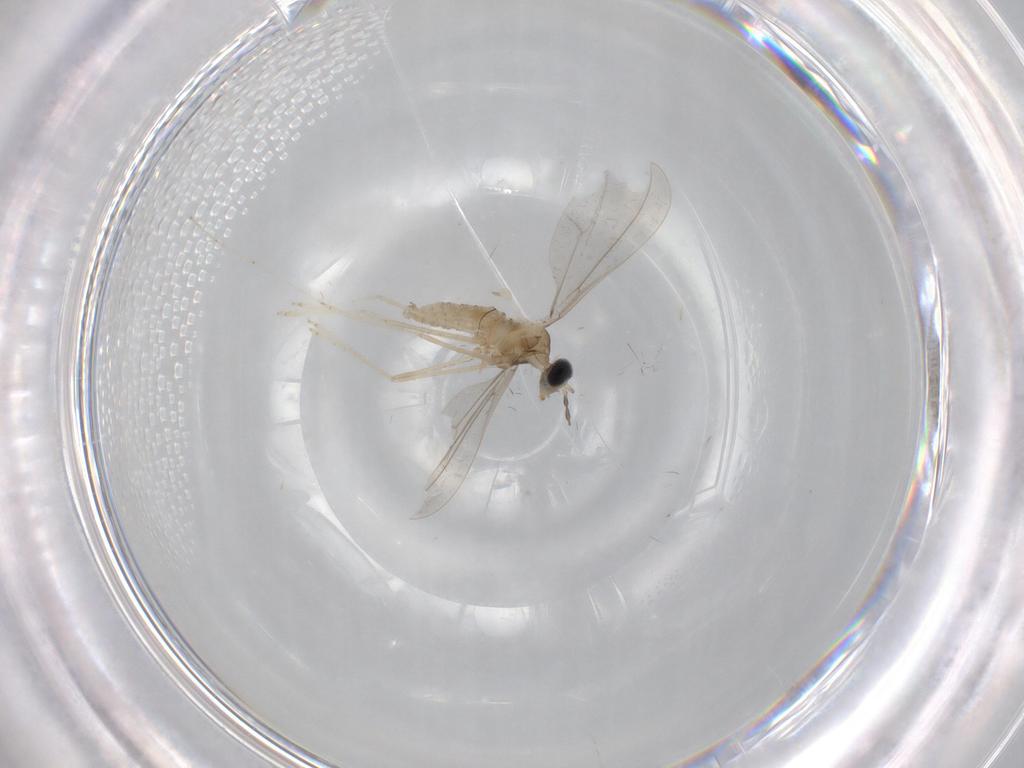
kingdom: Animalia
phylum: Arthropoda
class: Insecta
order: Diptera
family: Cecidomyiidae
